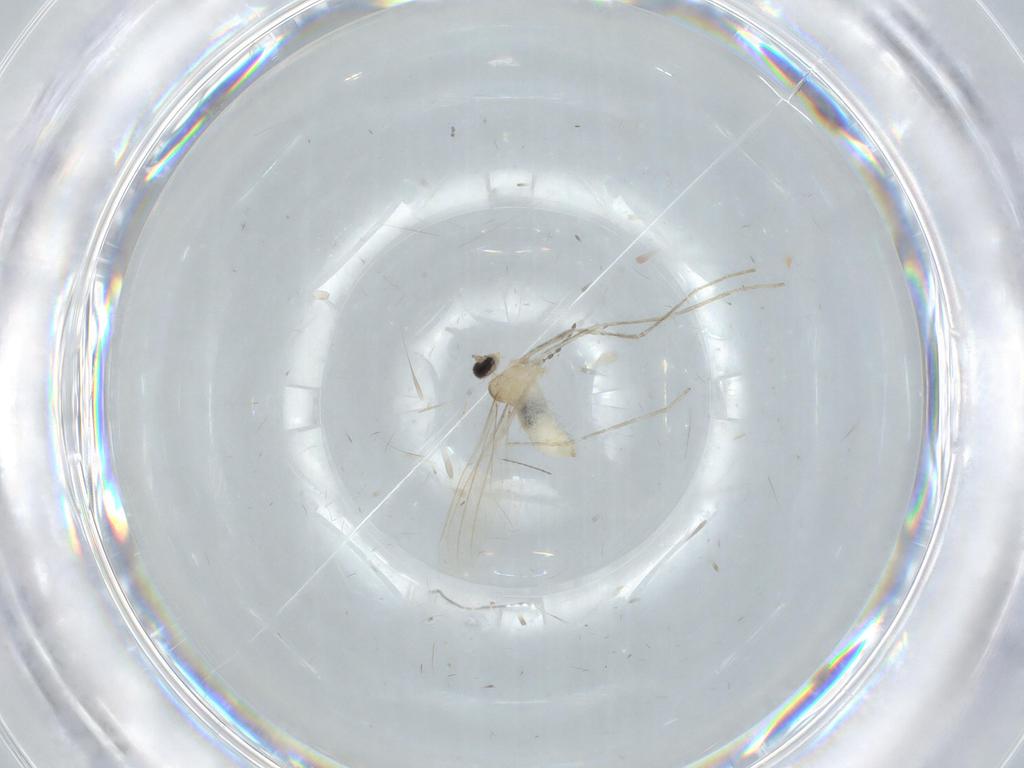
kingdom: Animalia
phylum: Arthropoda
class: Insecta
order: Diptera
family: Cecidomyiidae
